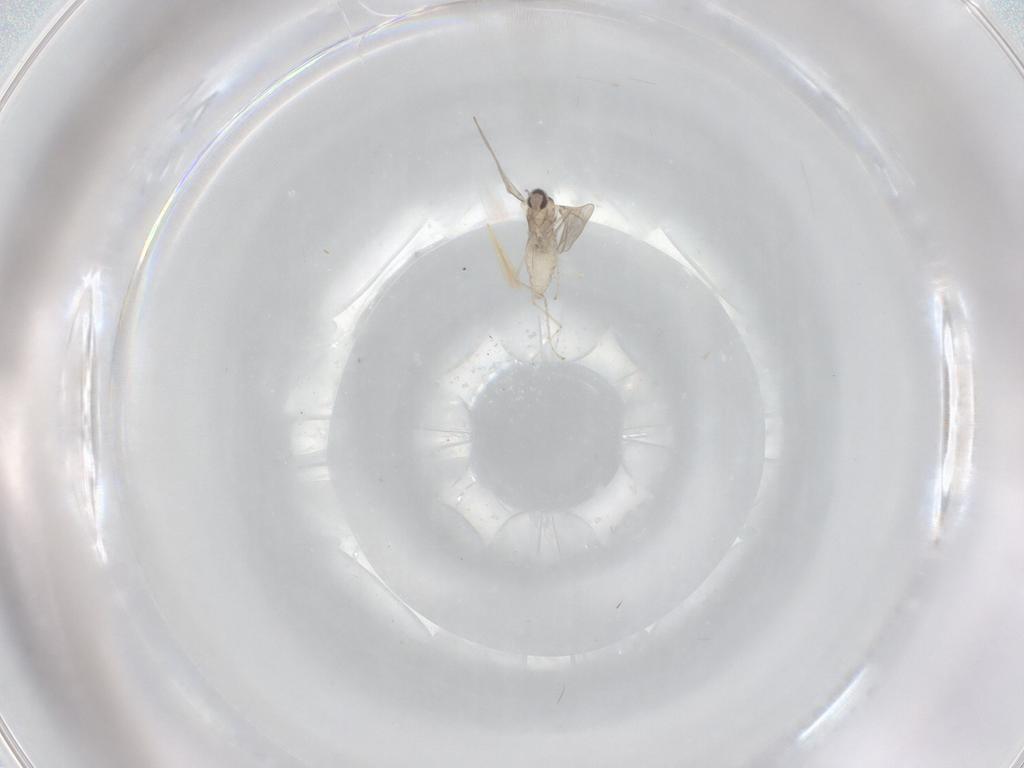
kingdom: Animalia
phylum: Arthropoda
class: Insecta
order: Diptera
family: Cecidomyiidae
